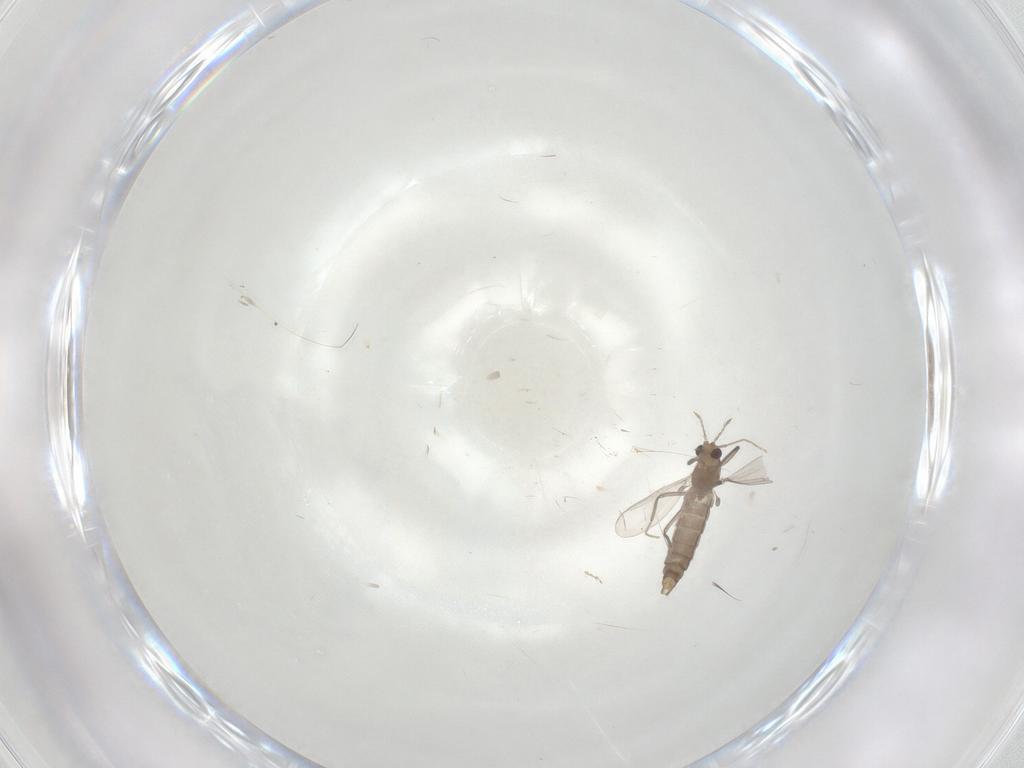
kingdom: Animalia
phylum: Arthropoda
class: Insecta
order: Diptera
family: Chironomidae
